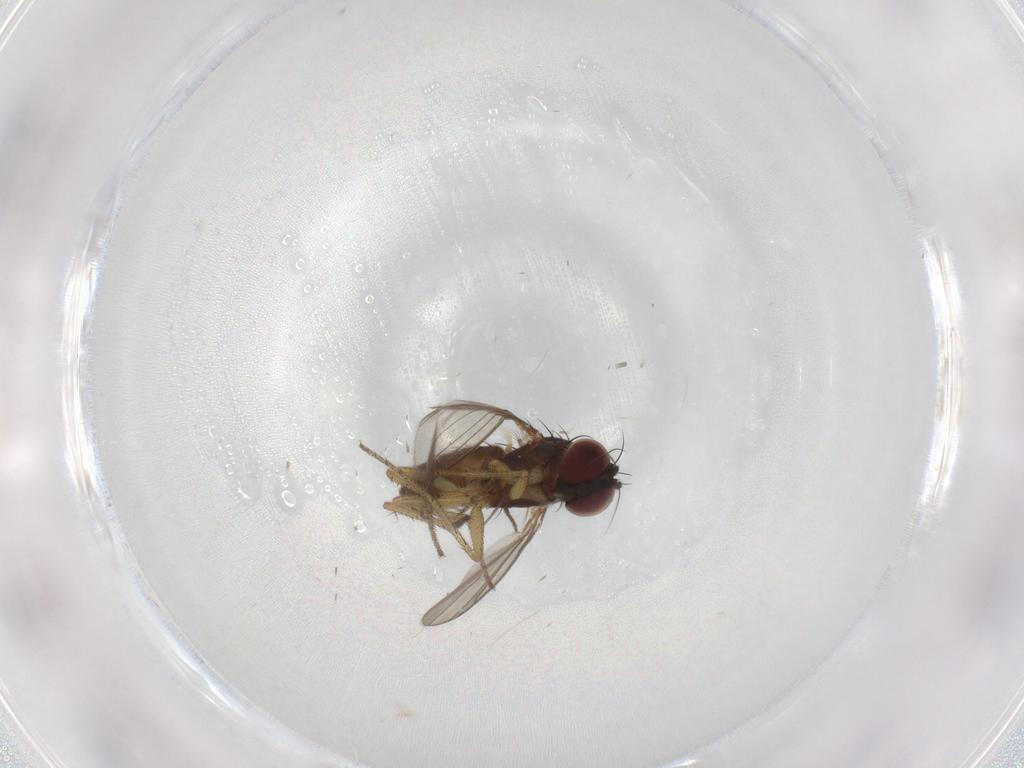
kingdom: Animalia
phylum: Arthropoda
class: Insecta
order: Diptera
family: Chironomidae
